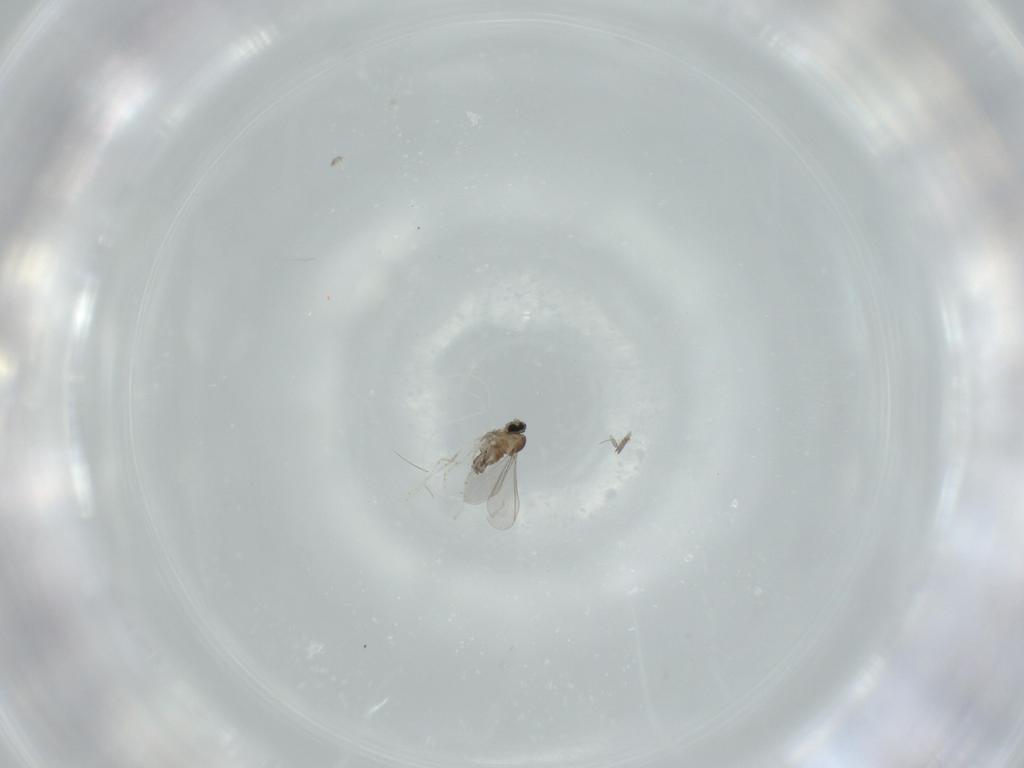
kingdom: Animalia
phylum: Arthropoda
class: Insecta
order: Diptera
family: Cecidomyiidae
